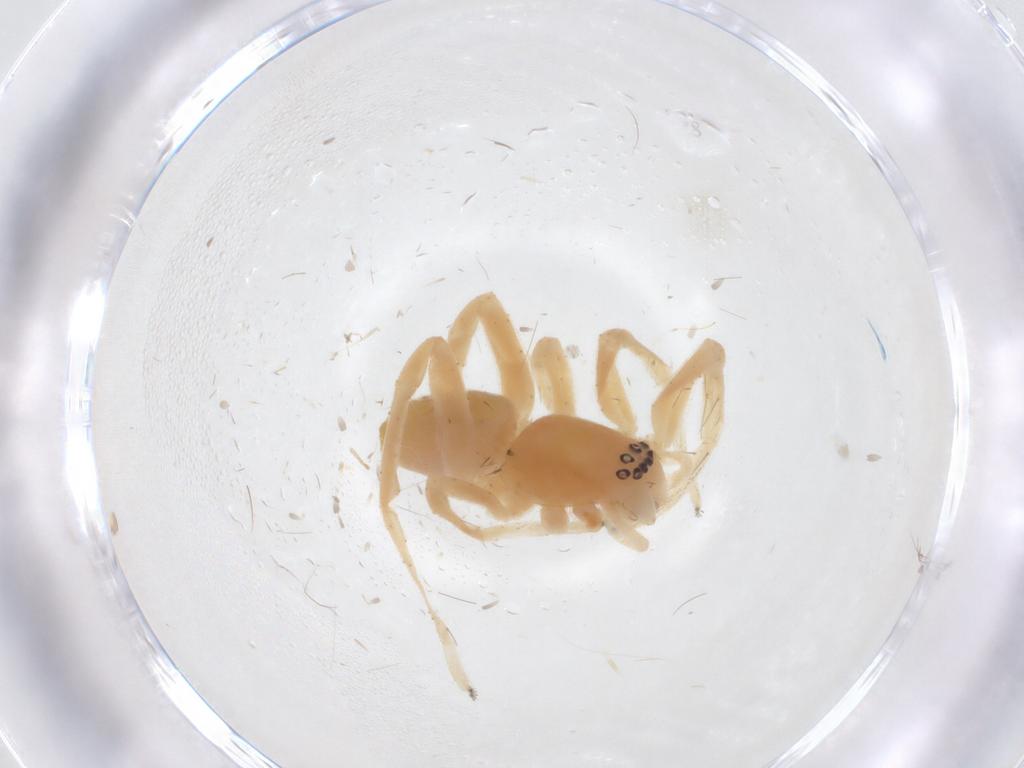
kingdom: Animalia
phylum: Arthropoda
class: Arachnida
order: Araneae
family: Anyphaenidae
